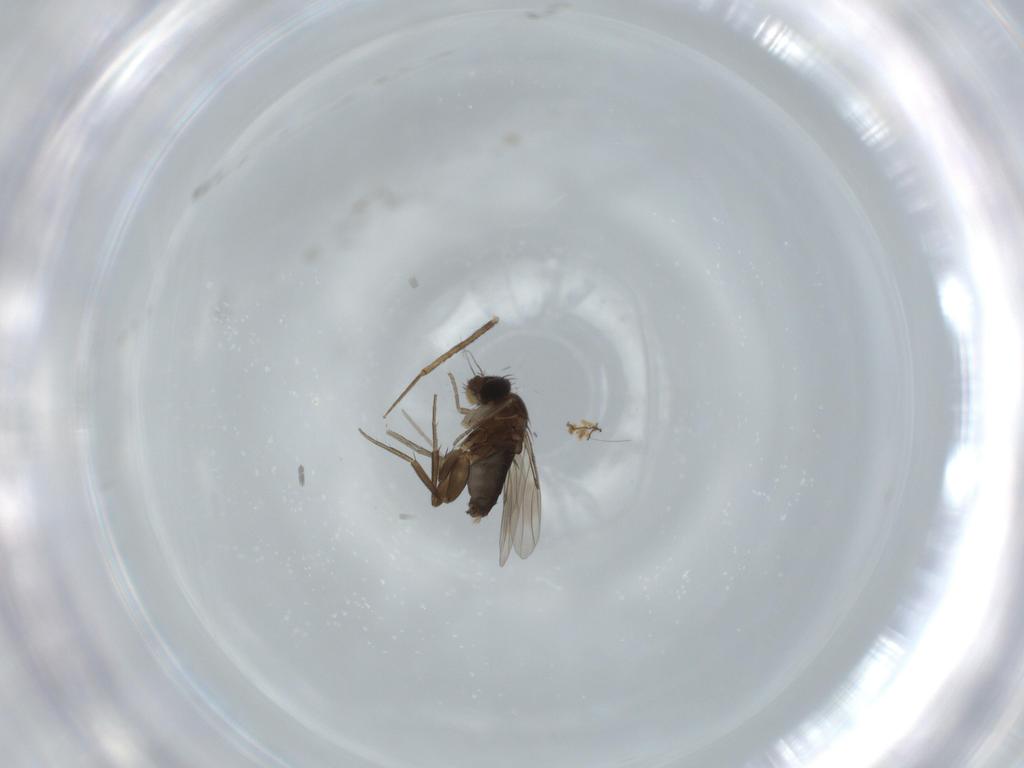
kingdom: Animalia
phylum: Arthropoda
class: Insecta
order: Diptera
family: Phoridae
